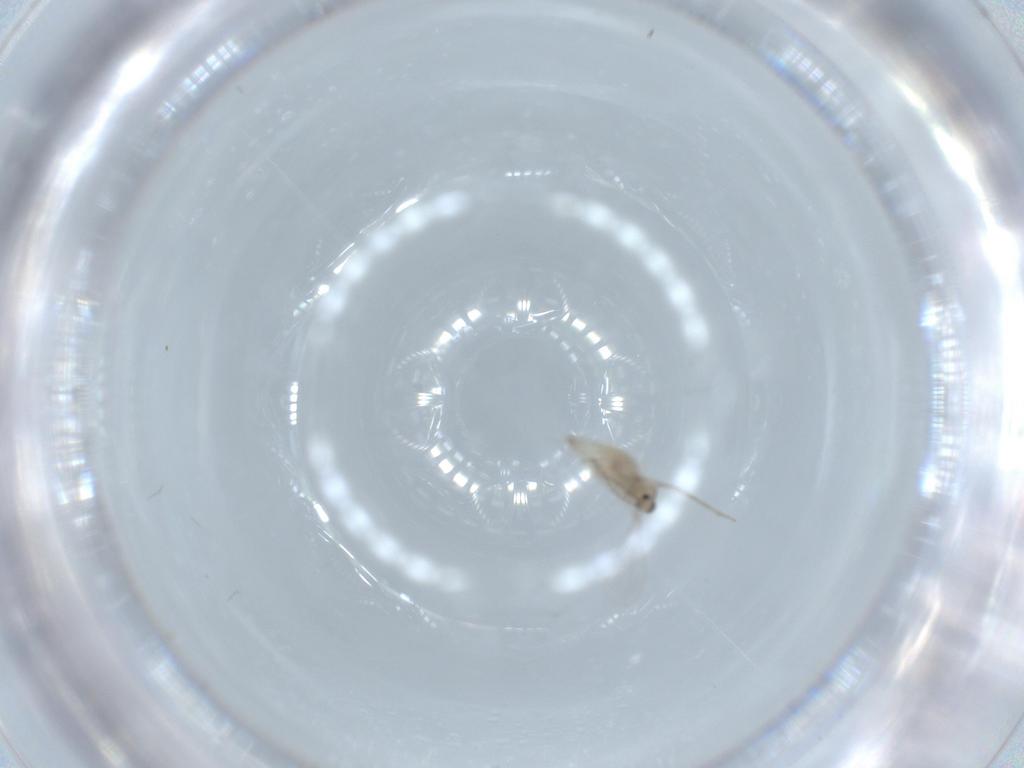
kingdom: Animalia
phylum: Arthropoda
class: Insecta
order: Diptera
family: Cecidomyiidae
